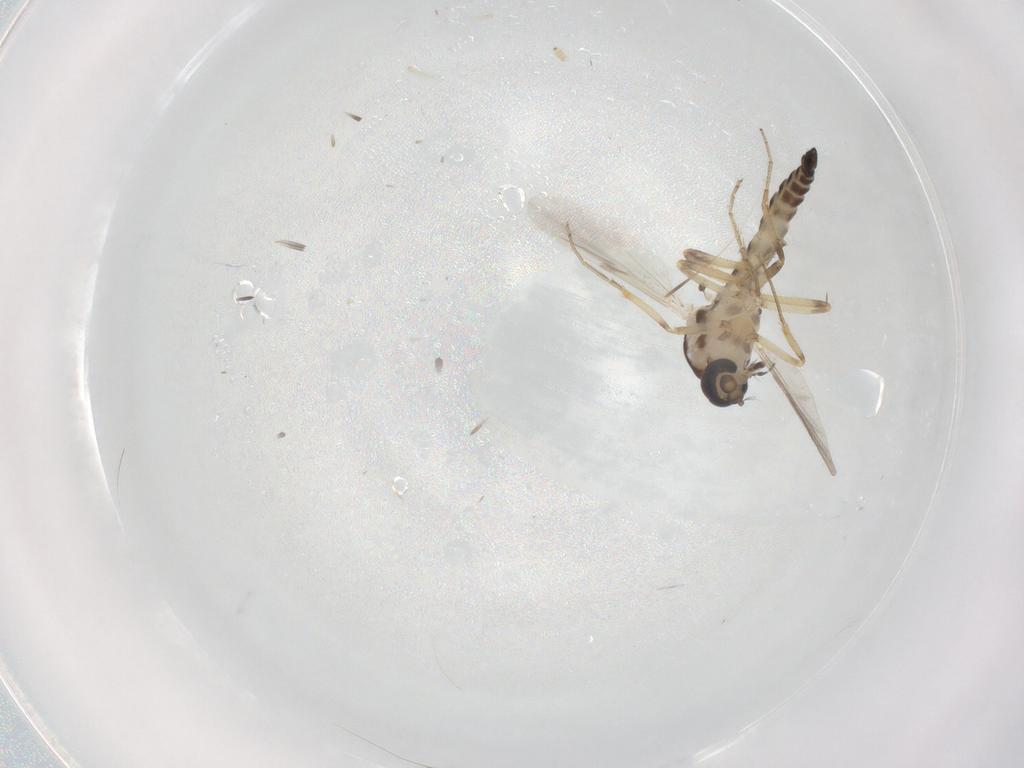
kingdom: Animalia
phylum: Arthropoda
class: Insecta
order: Diptera
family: Ceratopogonidae
